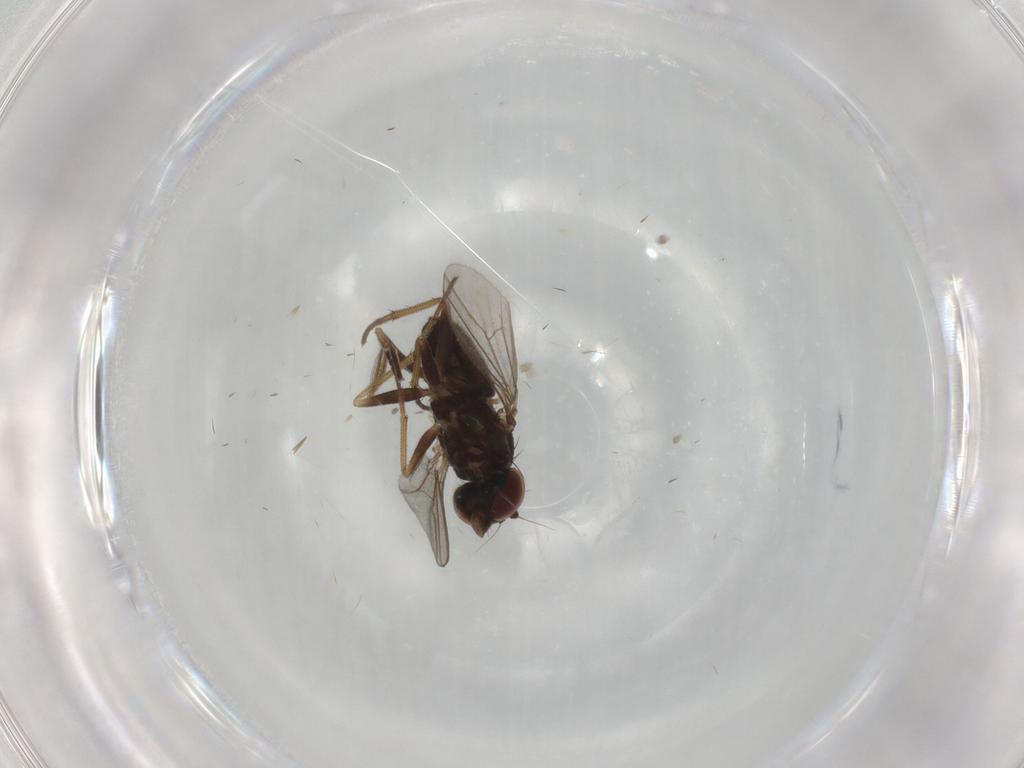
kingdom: Animalia
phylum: Arthropoda
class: Insecta
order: Diptera
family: Dolichopodidae
